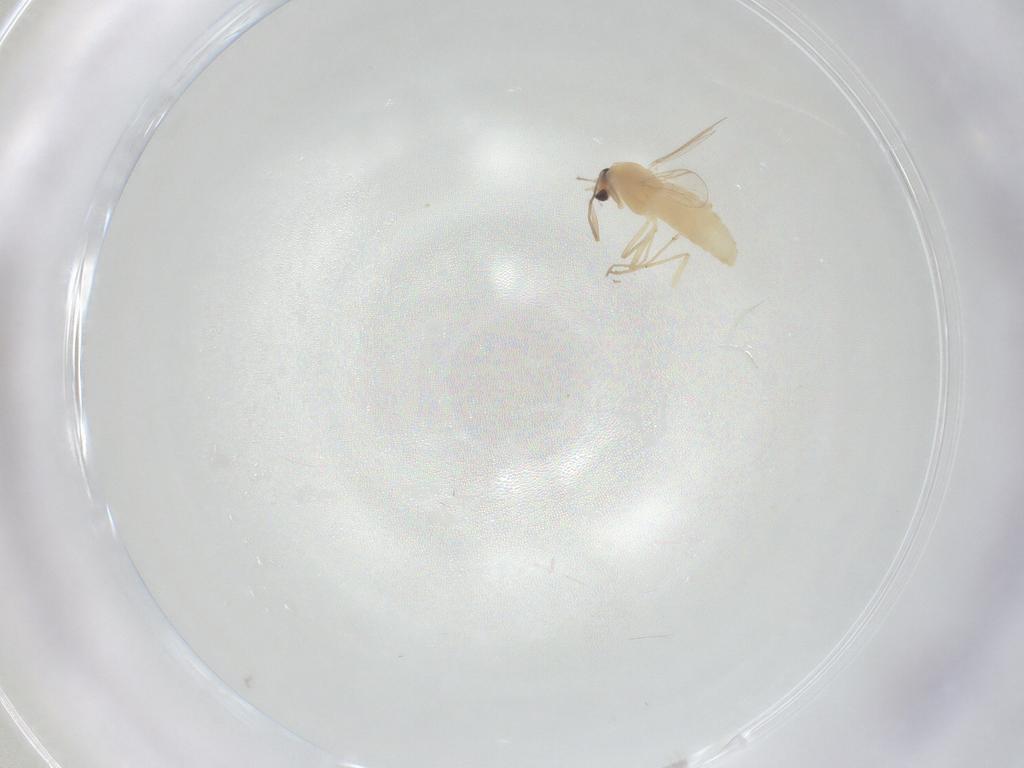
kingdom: Animalia
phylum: Arthropoda
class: Insecta
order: Diptera
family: Chironomidae
